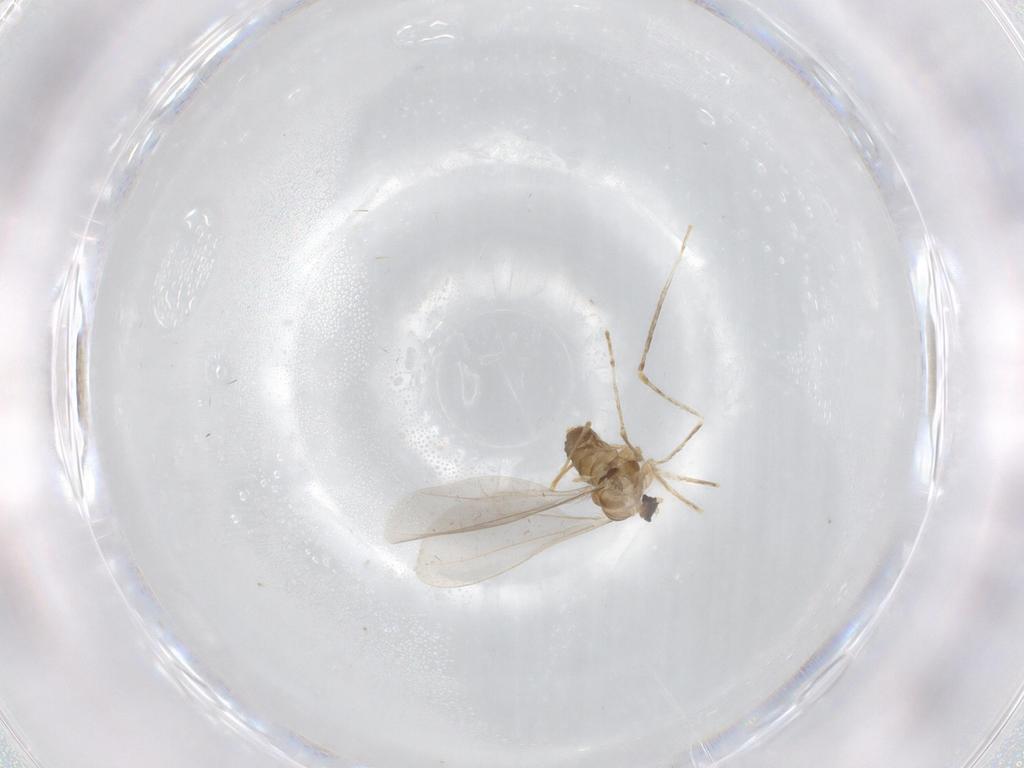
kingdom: Animalia
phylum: Arthropoda
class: Insecta
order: Diptera
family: Cecidomyiidae
